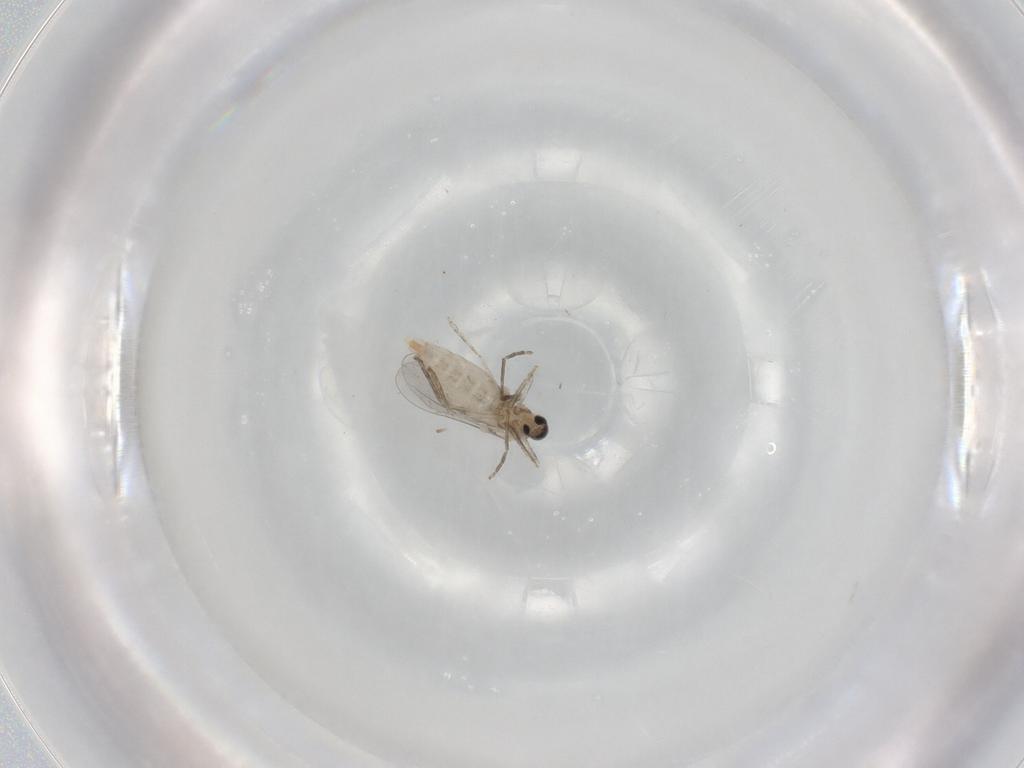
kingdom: Animalia
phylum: Arthropoda
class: Insecta
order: Diptera
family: Cecidomyiidae
